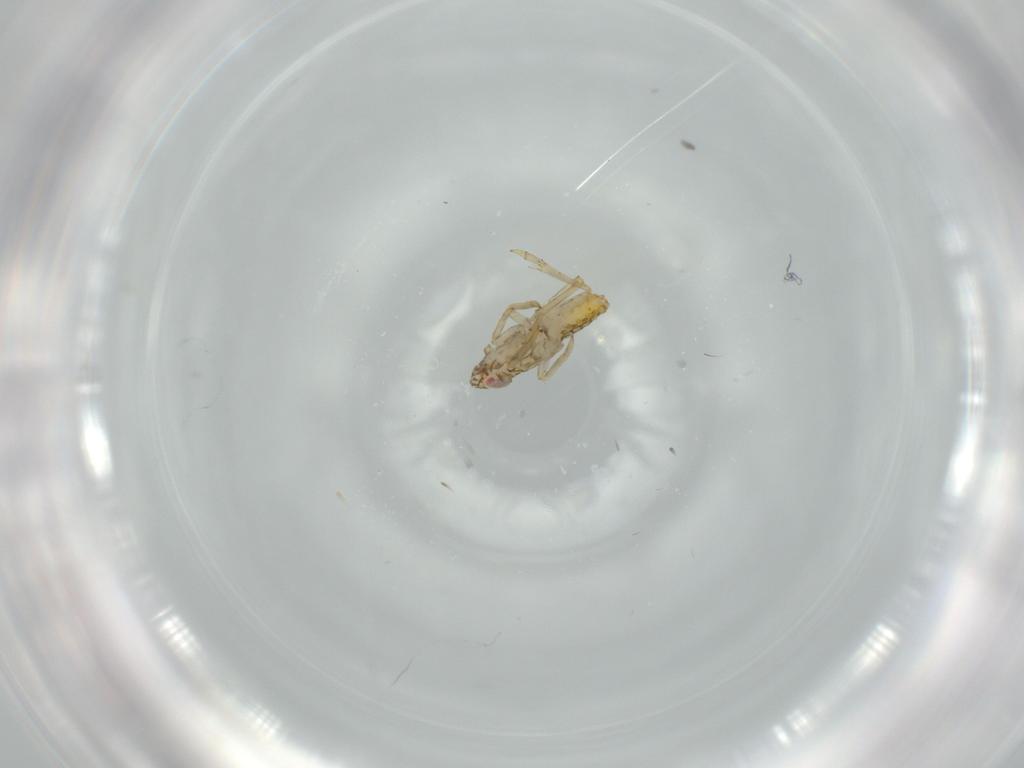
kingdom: Animalia
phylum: Arthropoda
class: Insecta
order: Hemiptera
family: Delphacidae
